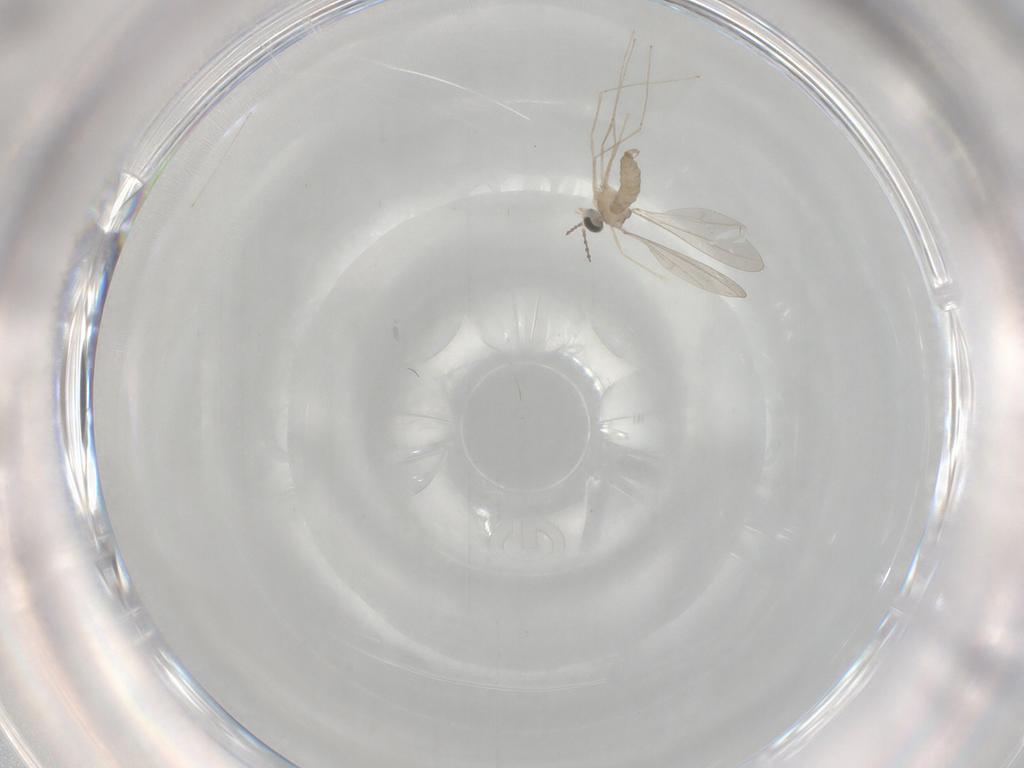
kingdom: Animalia
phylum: Arthropoda
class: Insecta
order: Diptera
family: Cecidomyiidae
